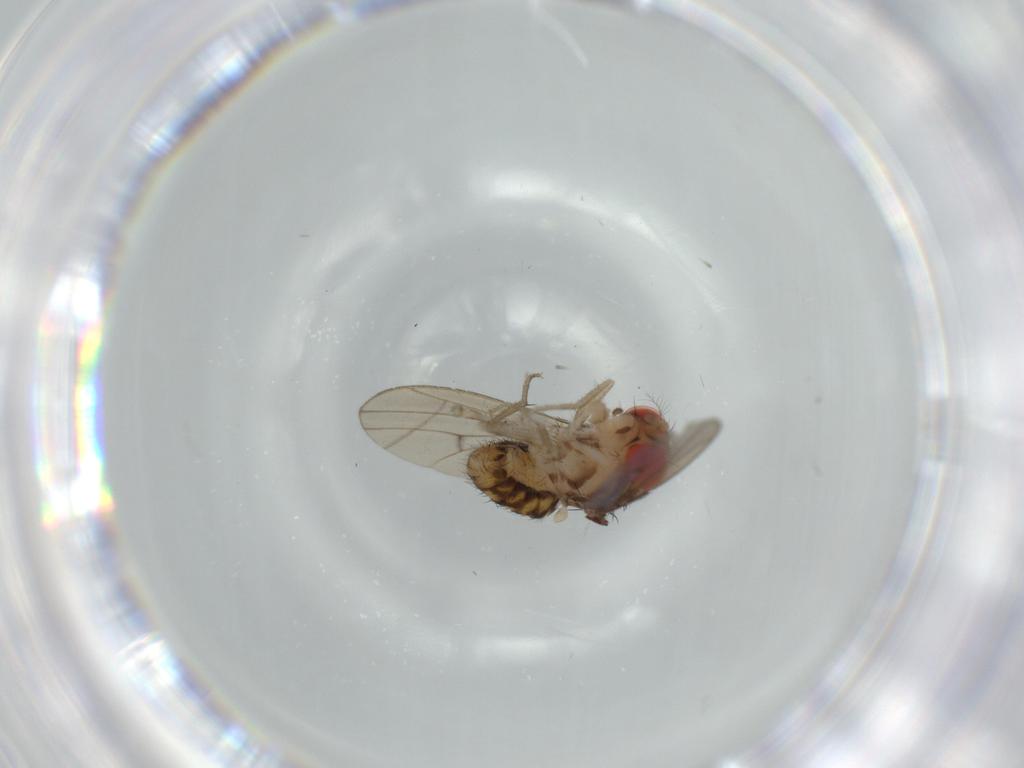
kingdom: Animalia
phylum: Arthropoda
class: Insecta
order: Diptera
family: Drosophilidae
